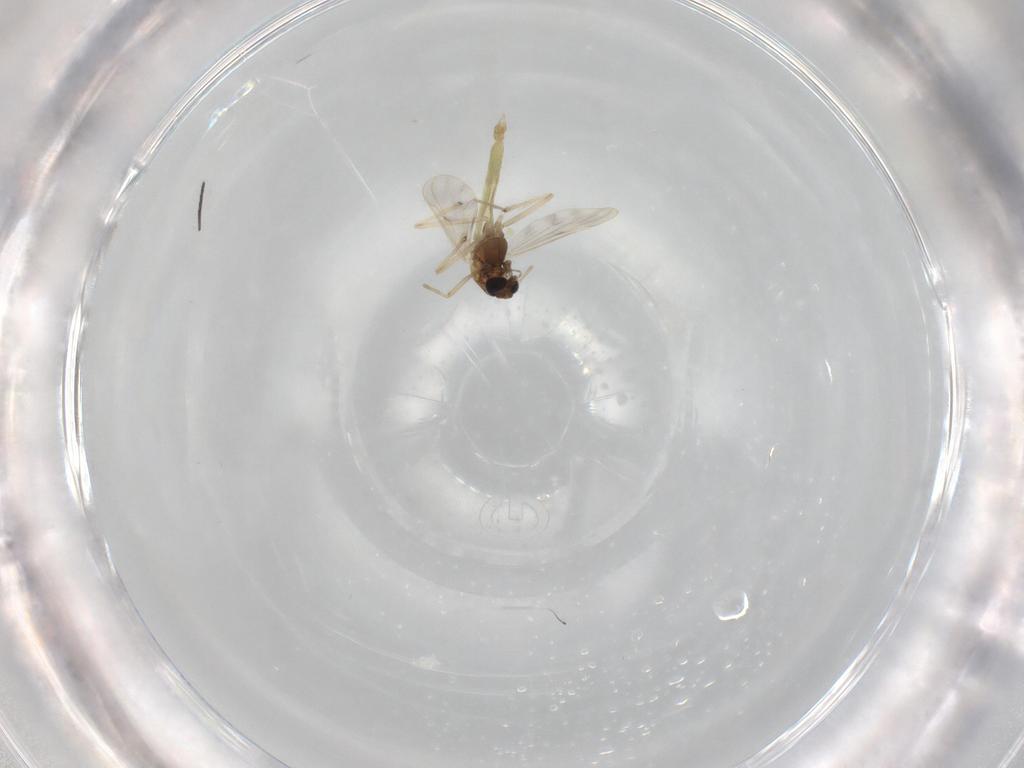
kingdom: Animalia
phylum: Arthropoda
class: Insecta
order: Diptera
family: Chironomidae
